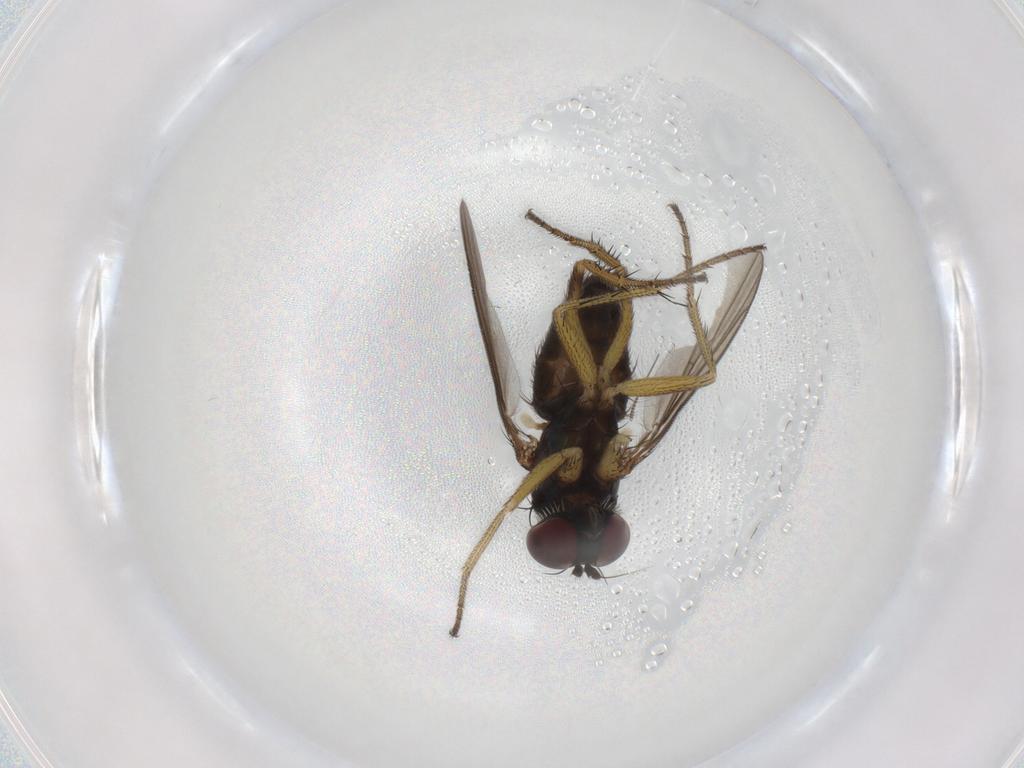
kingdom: Animalia
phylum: Arthropoda
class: Insecta
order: Diptera
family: Dolichopodidae
